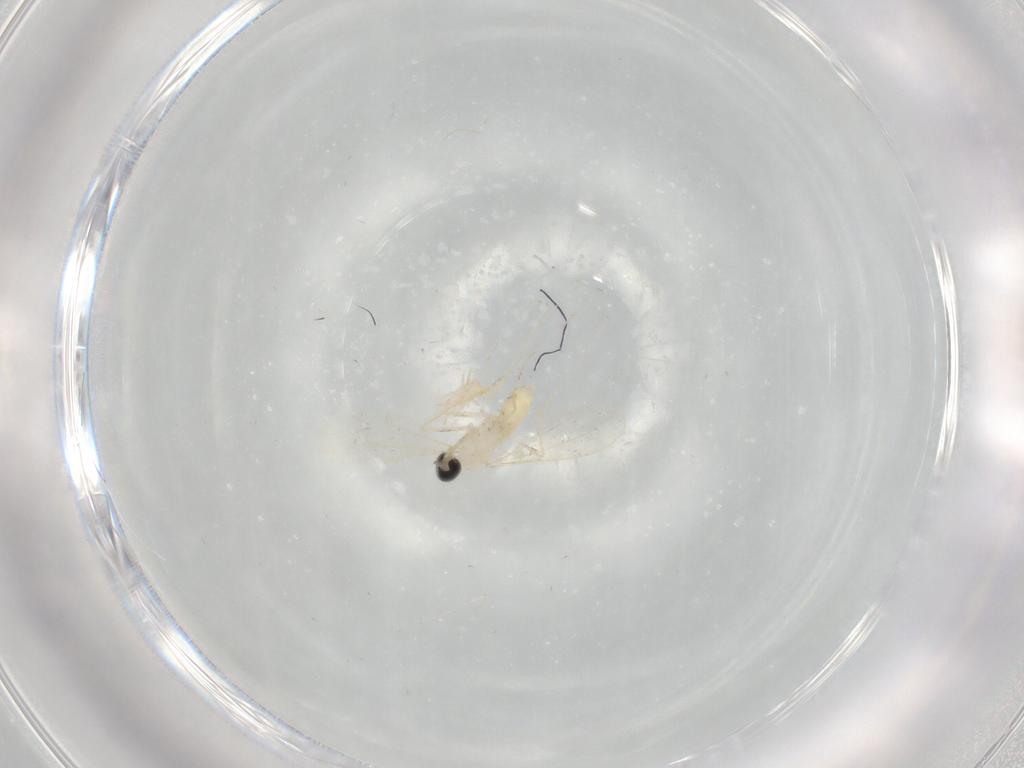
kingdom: Animalia
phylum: Arthropoda
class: Insecta
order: Diptera
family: Cecidomyiidae
